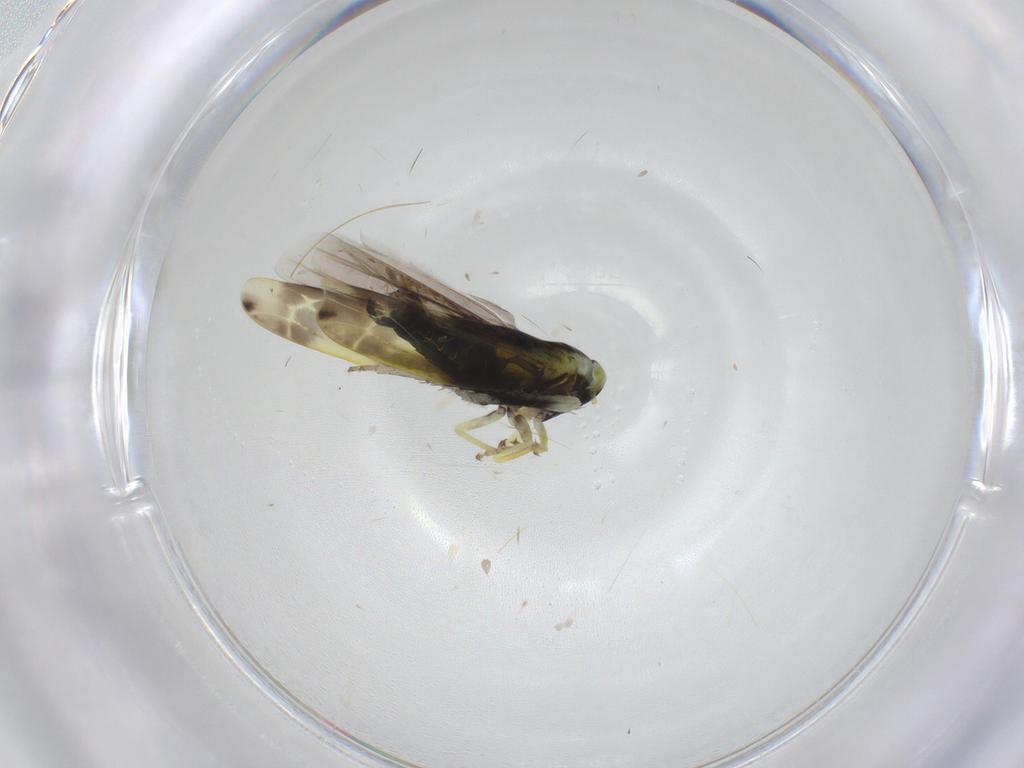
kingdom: Animalia
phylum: Arthropoda
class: Insecta
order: Hemiptera
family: Cicadellidae
